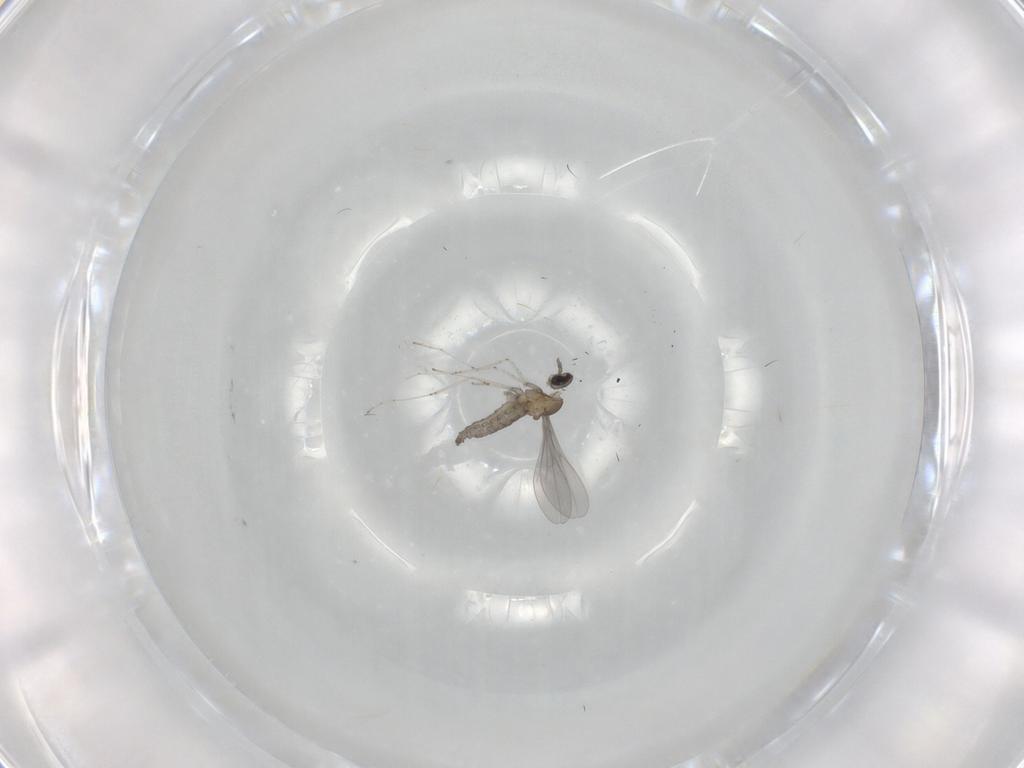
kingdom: Animalia
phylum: Arthropoda
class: Insecta
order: Diptera
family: Cecidomyiidae
